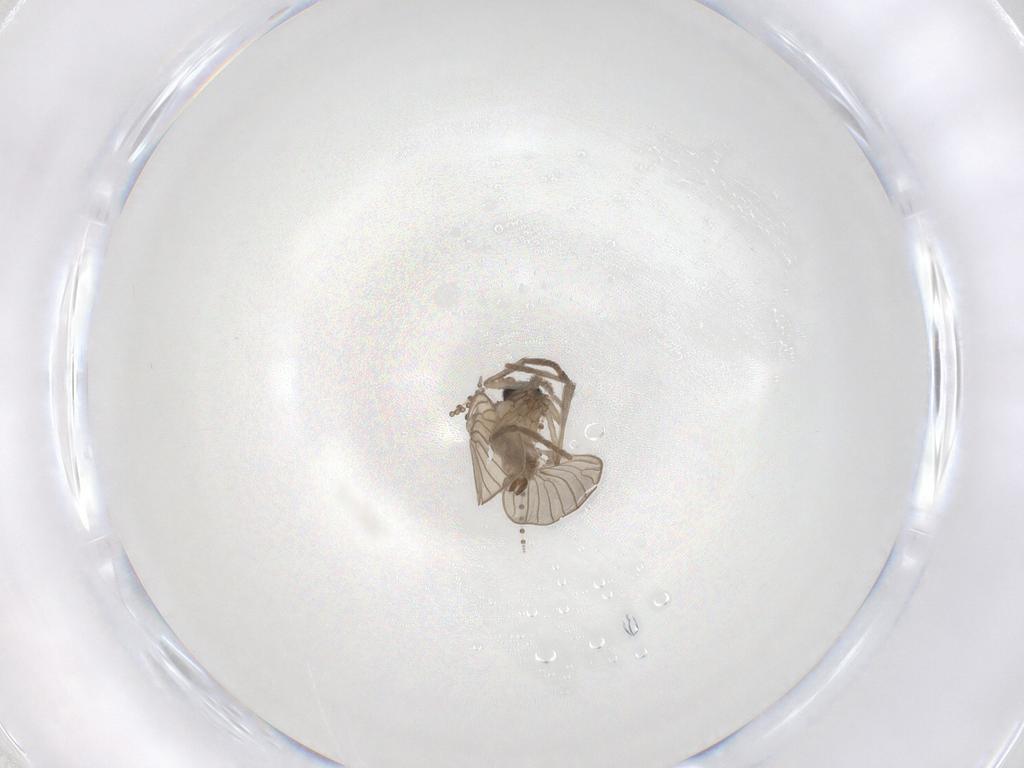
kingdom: Animalia
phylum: Arthropoda
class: Insecta
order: Diptera
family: Psychodidae
